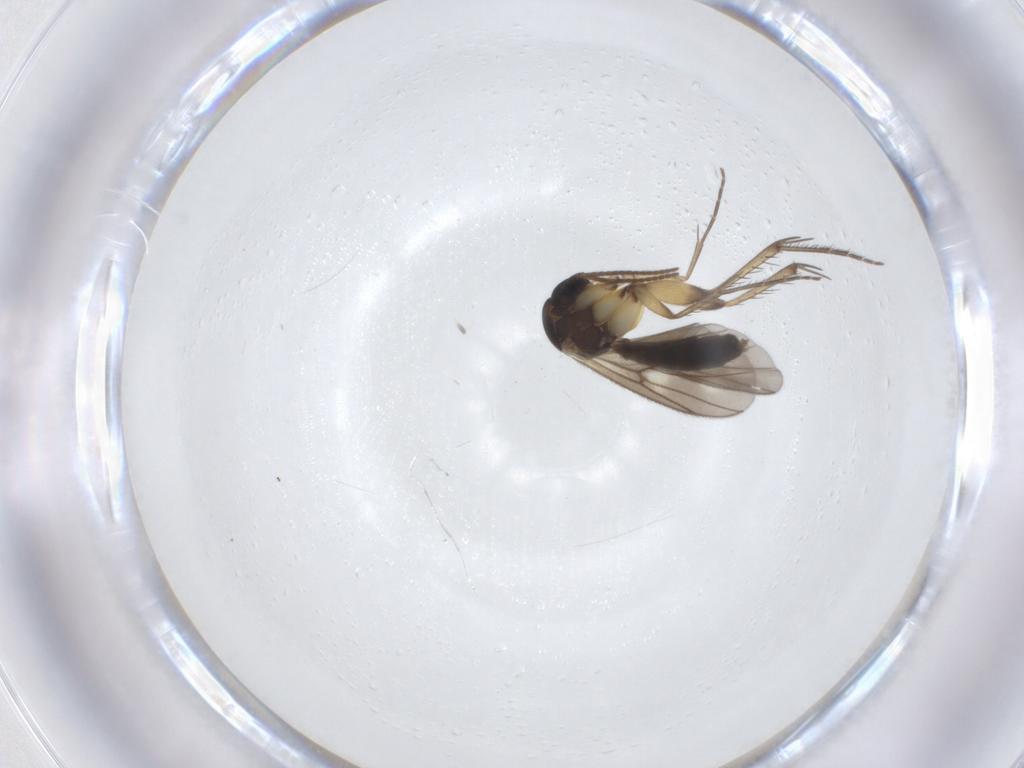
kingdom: Animalia
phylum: Arthropoda
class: Insecta
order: Diptera
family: Mycetophilidae
